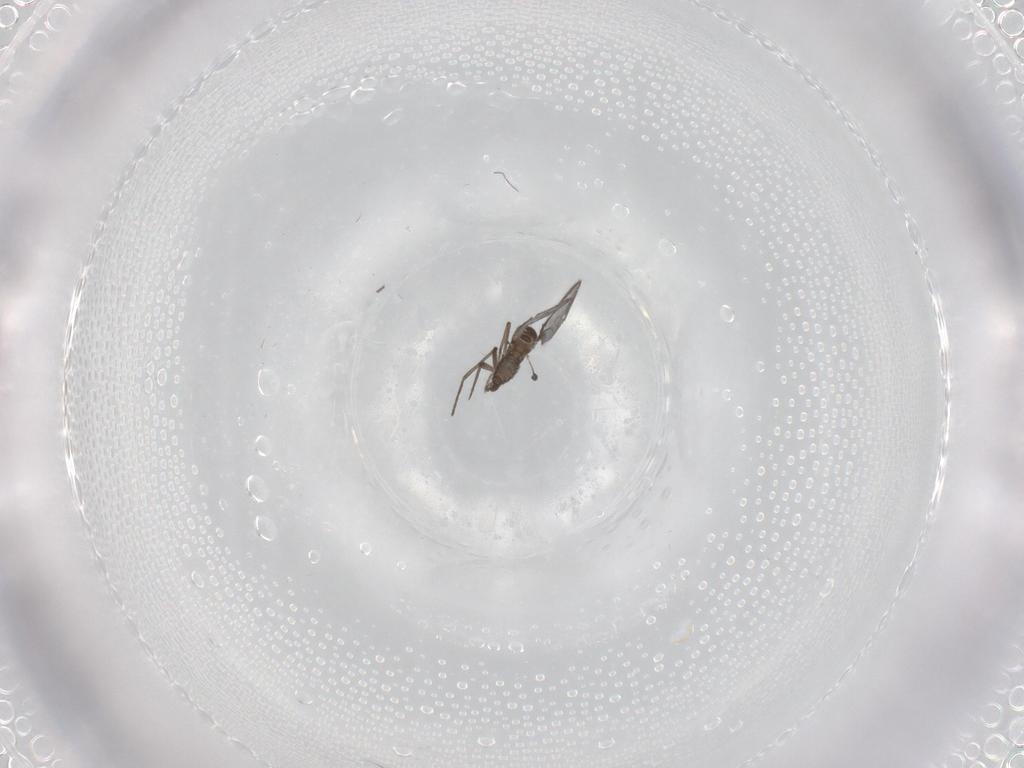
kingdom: Animalia
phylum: Arthropoda
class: Insecta
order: Diptera
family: Sciaridae
